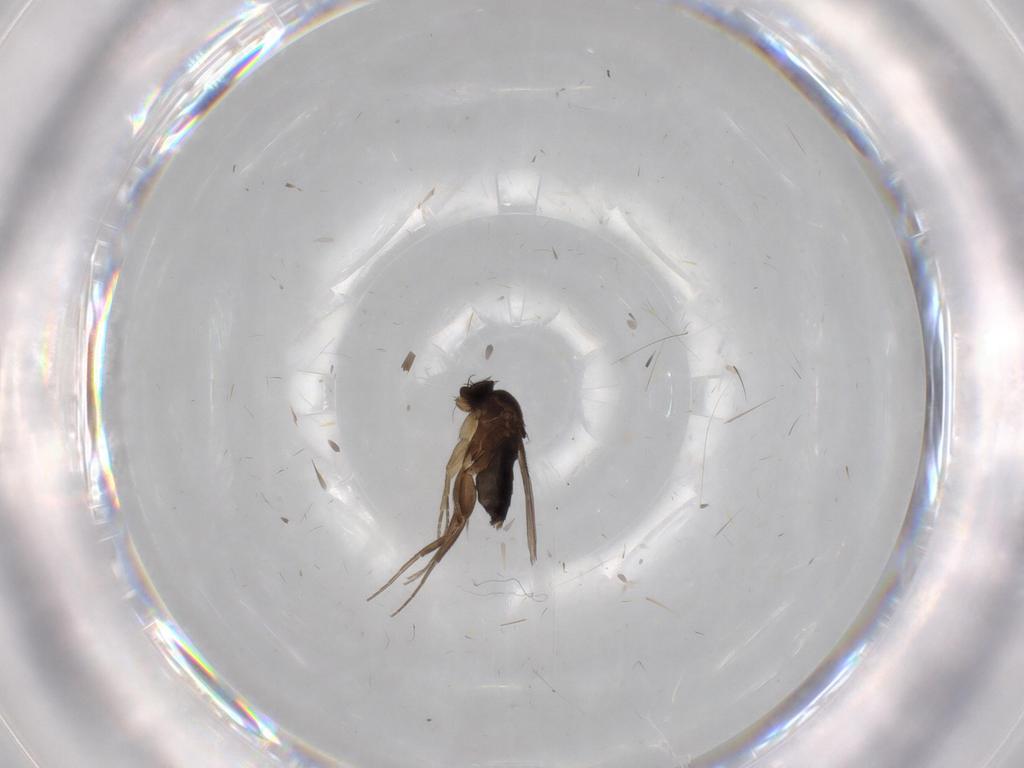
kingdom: Animalia
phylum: Arthropoda
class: Insecta
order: Diptera
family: Phoridae
